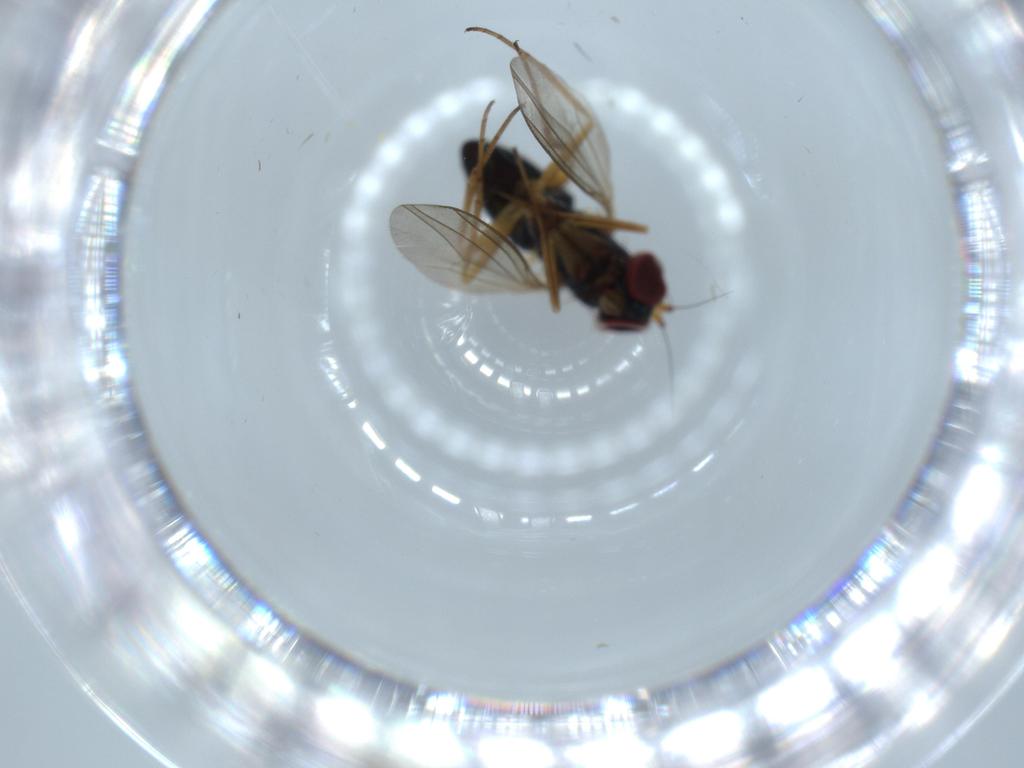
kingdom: Animalia
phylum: Arthropoda
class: Insecta
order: Diptera
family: Dolichopodidae
